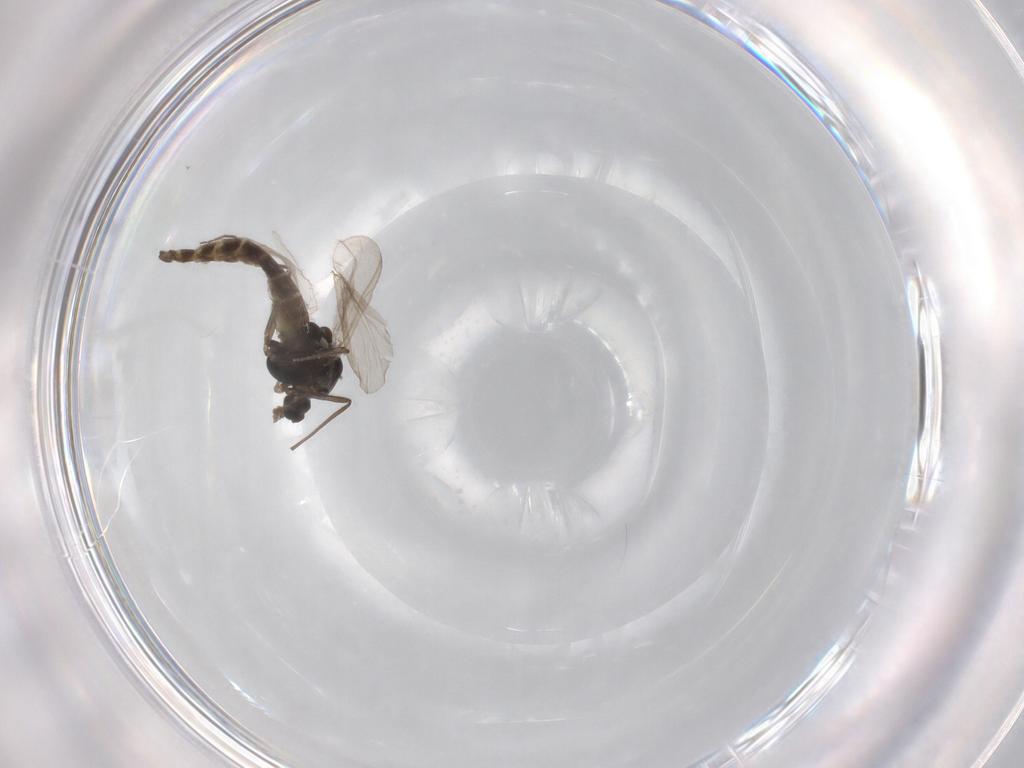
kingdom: Animalia
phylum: Arthropoda
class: Insecta
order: Diptera
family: Chironomidae
